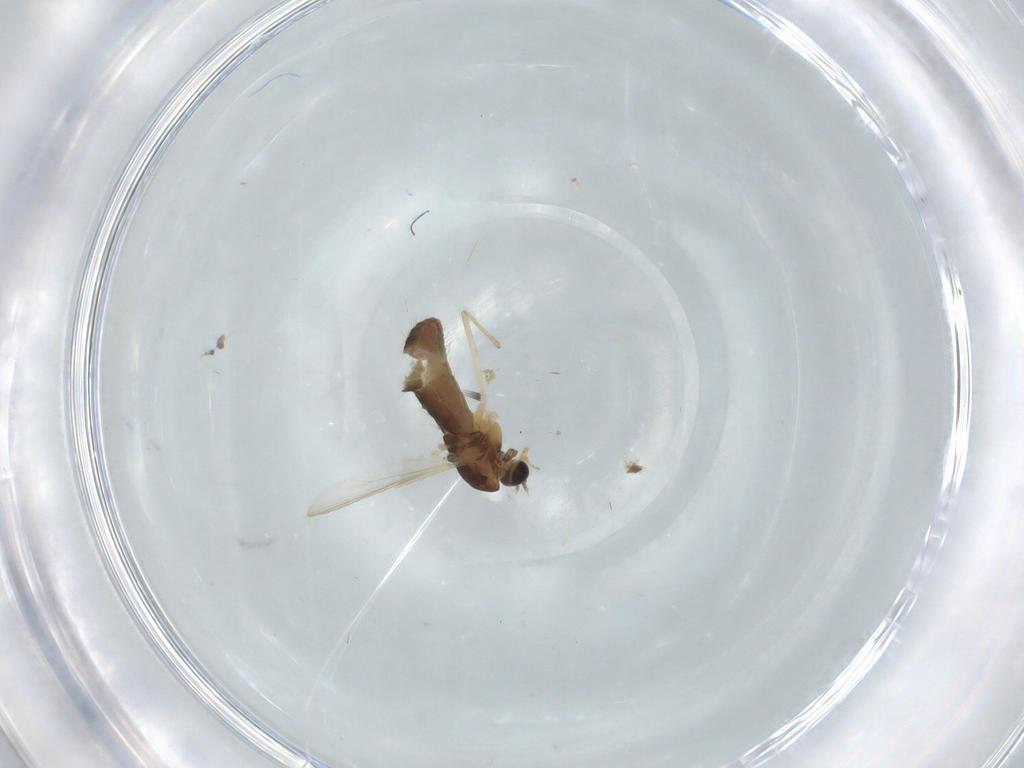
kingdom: Animalia
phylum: Arthropoda
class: Insecta
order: Diptera
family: Chironomidae
